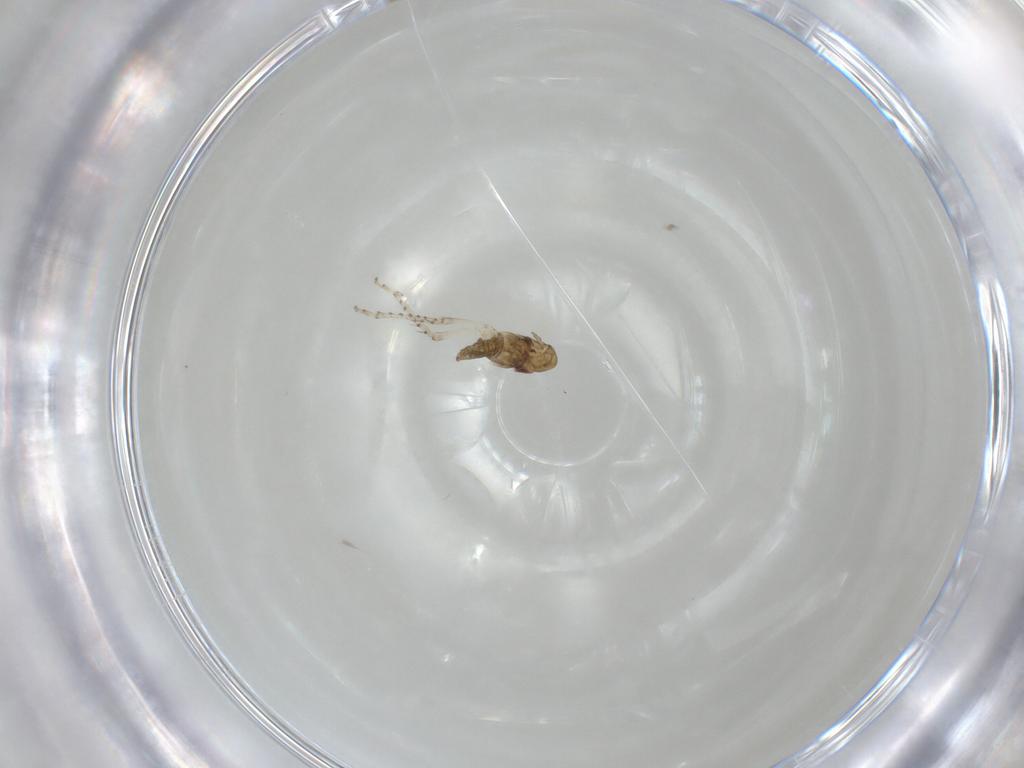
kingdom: Animalia
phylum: Arthropoda
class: Insecta
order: Hemiptera
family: Cicadellidae
